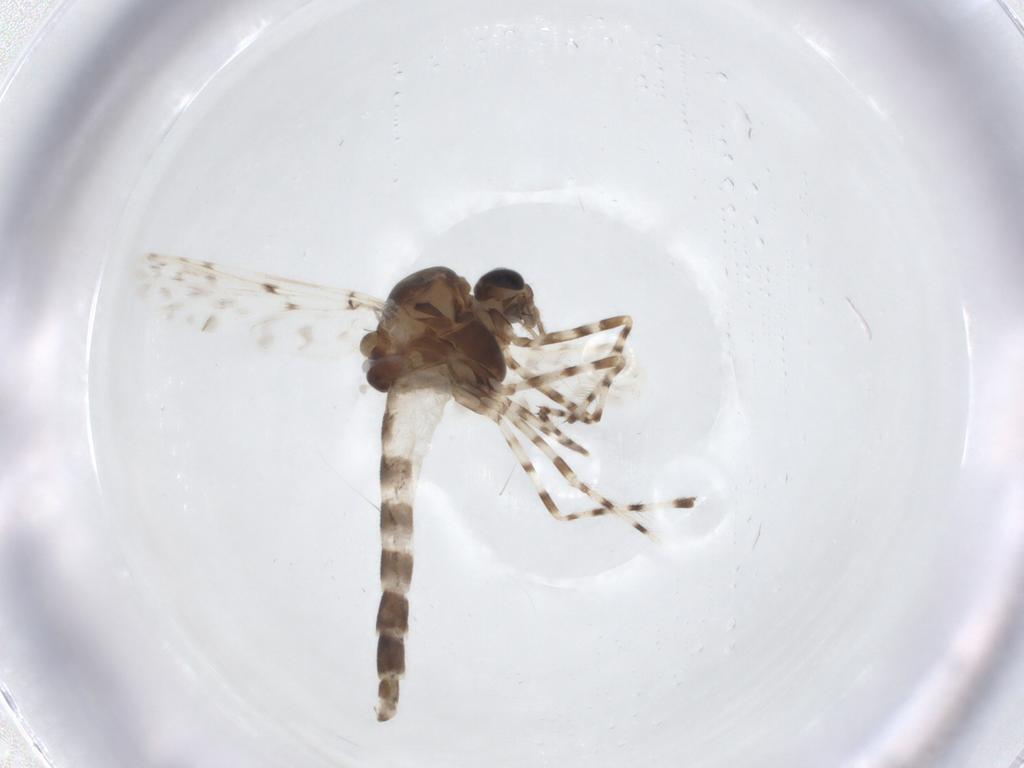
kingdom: Animalia
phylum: Arthropoda
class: Insecta
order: Diptera
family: Chironomidae
